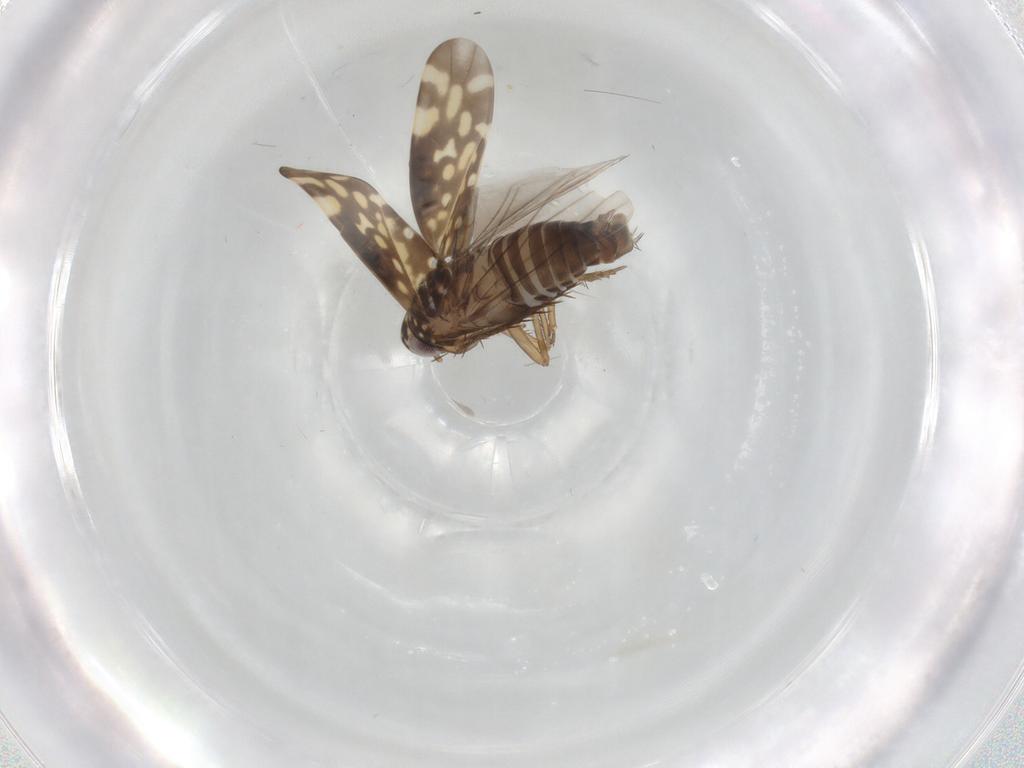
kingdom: Animalia
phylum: Arthropoda
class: Insecta
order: Hemiptera
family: Cicadellidae
